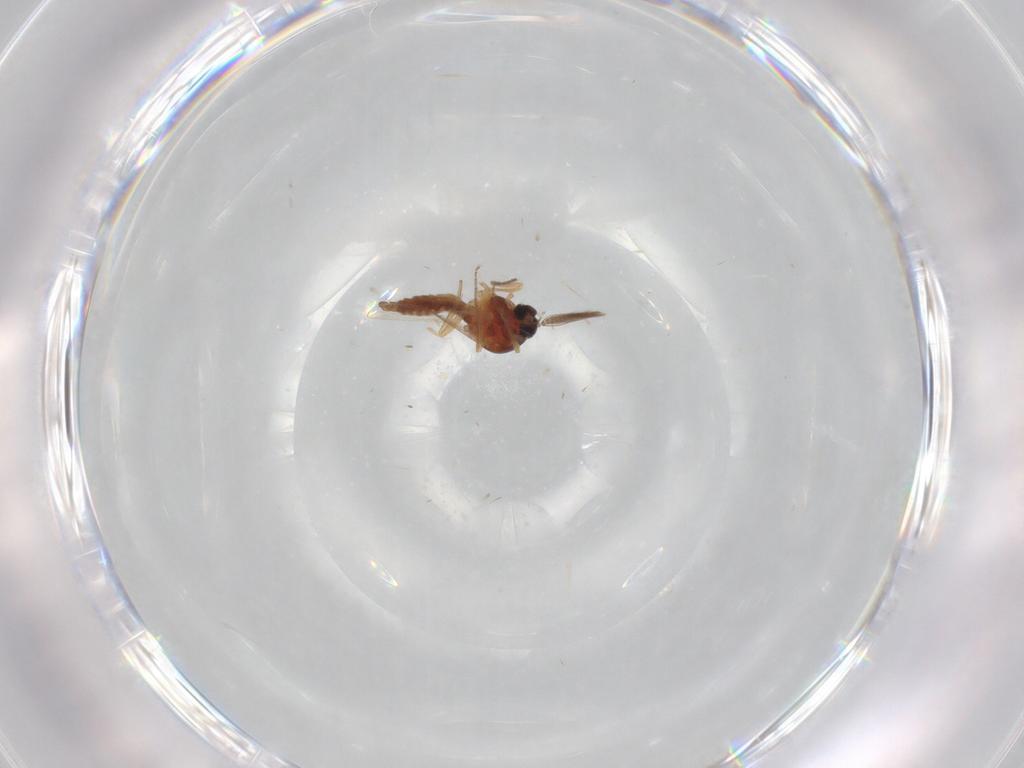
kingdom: Animalia
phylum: Arthropoda
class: Insecta
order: Diptera
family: Ceratopogonidae
